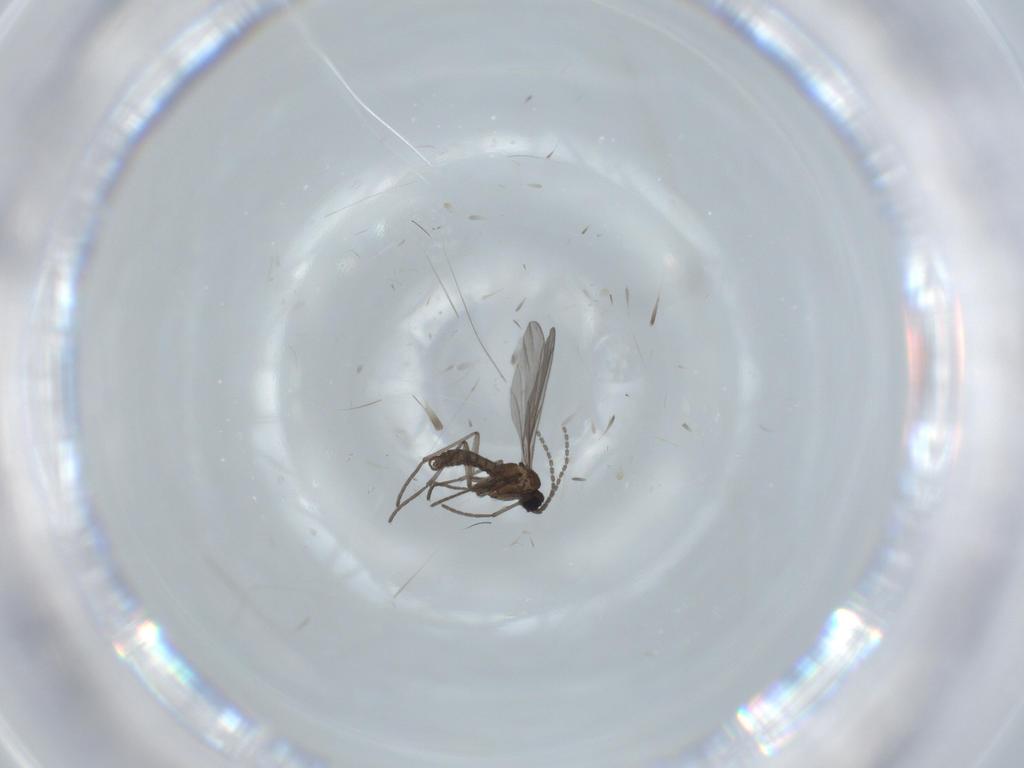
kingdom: Animalia
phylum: Arthropoda
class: Insecta
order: Diptera
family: Sciaridae
